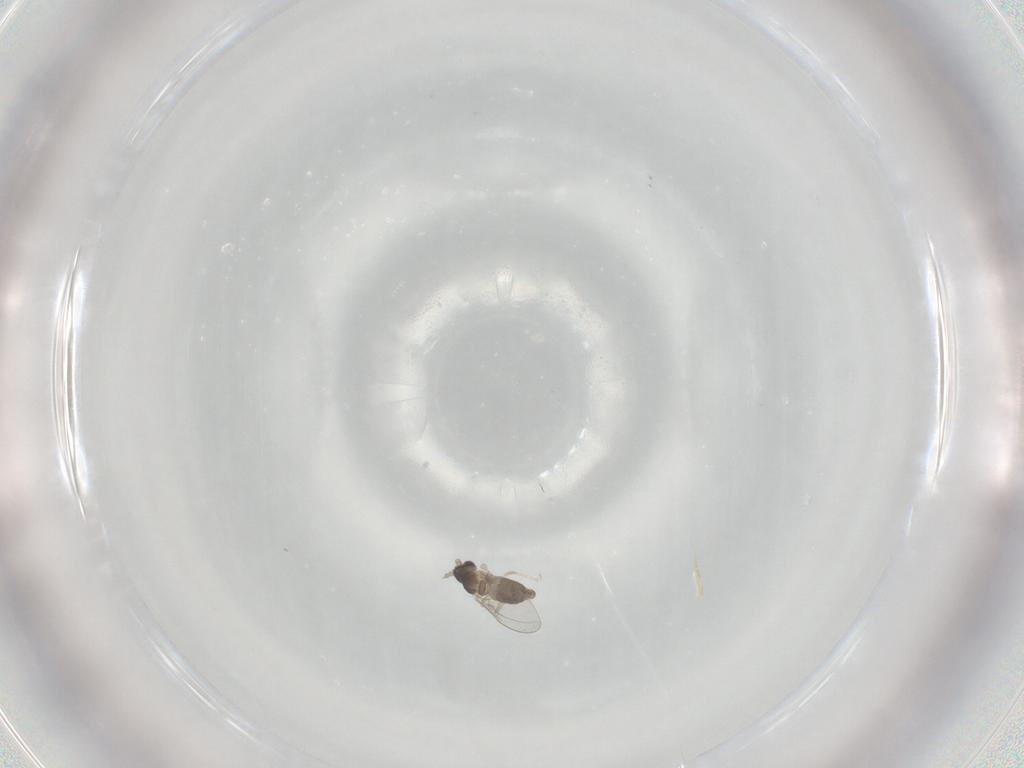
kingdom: Animalia
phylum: Arthropoda
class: Insecta
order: Diptera
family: Cecidomyiidae
